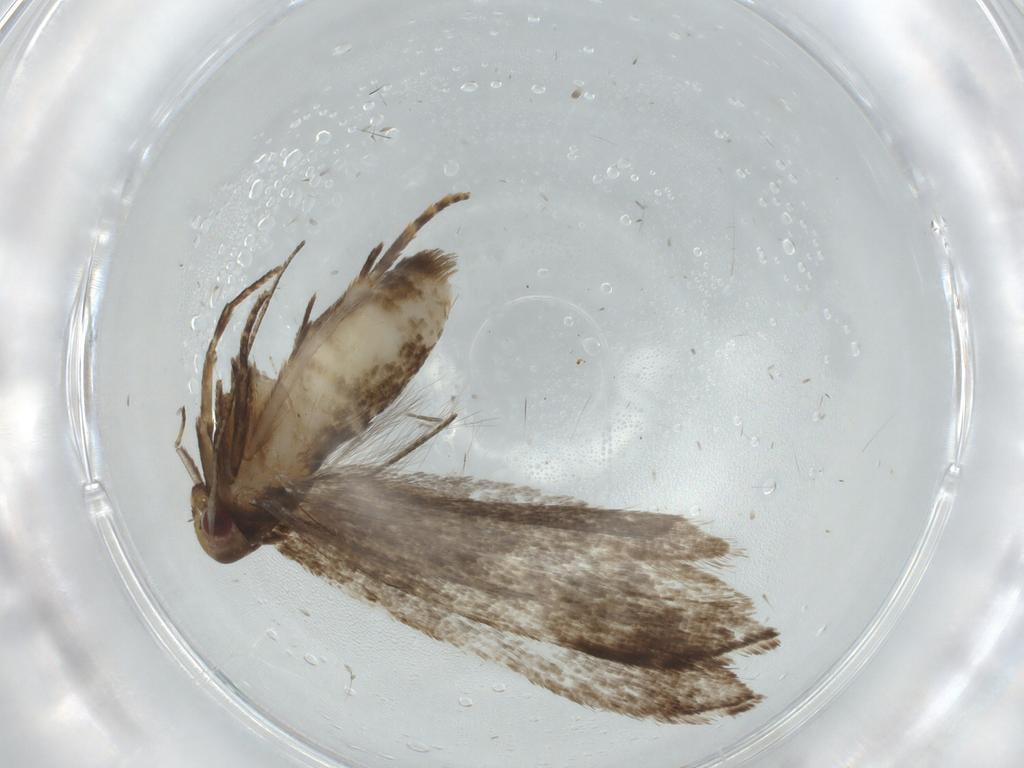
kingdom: Animalia
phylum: Arthropoda
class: Insecta
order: Lepidoptera
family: Gelechiidae
